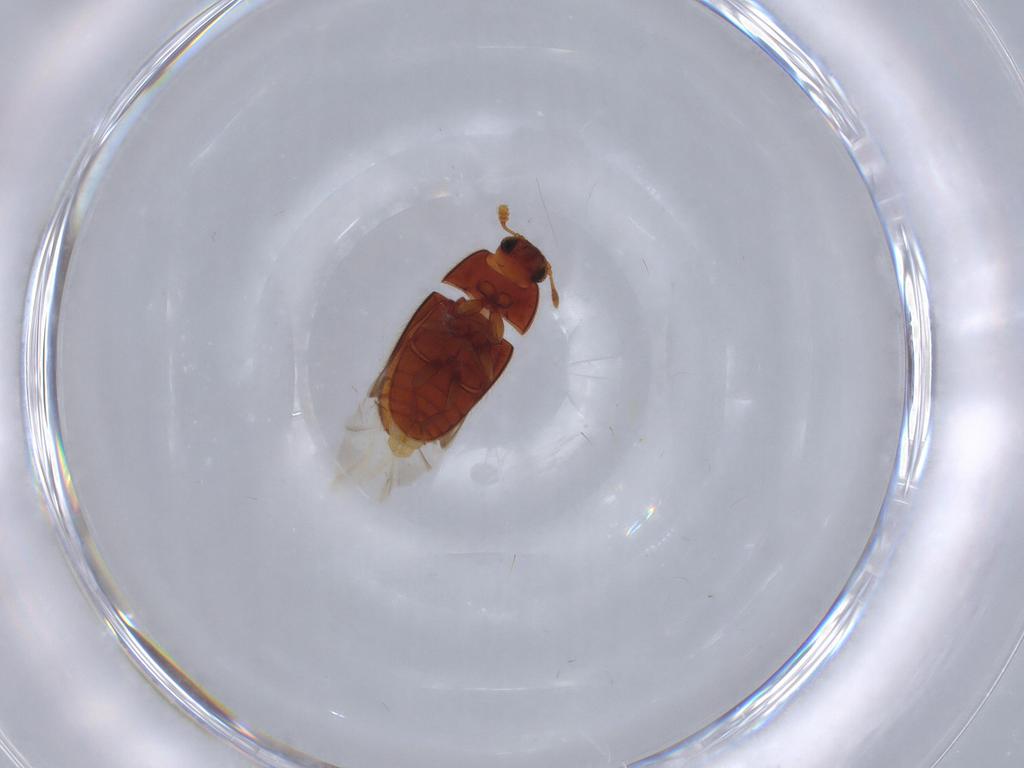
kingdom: Animalia
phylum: Arthropoda
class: Insecta
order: Coleoptera
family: Biphyllidae
